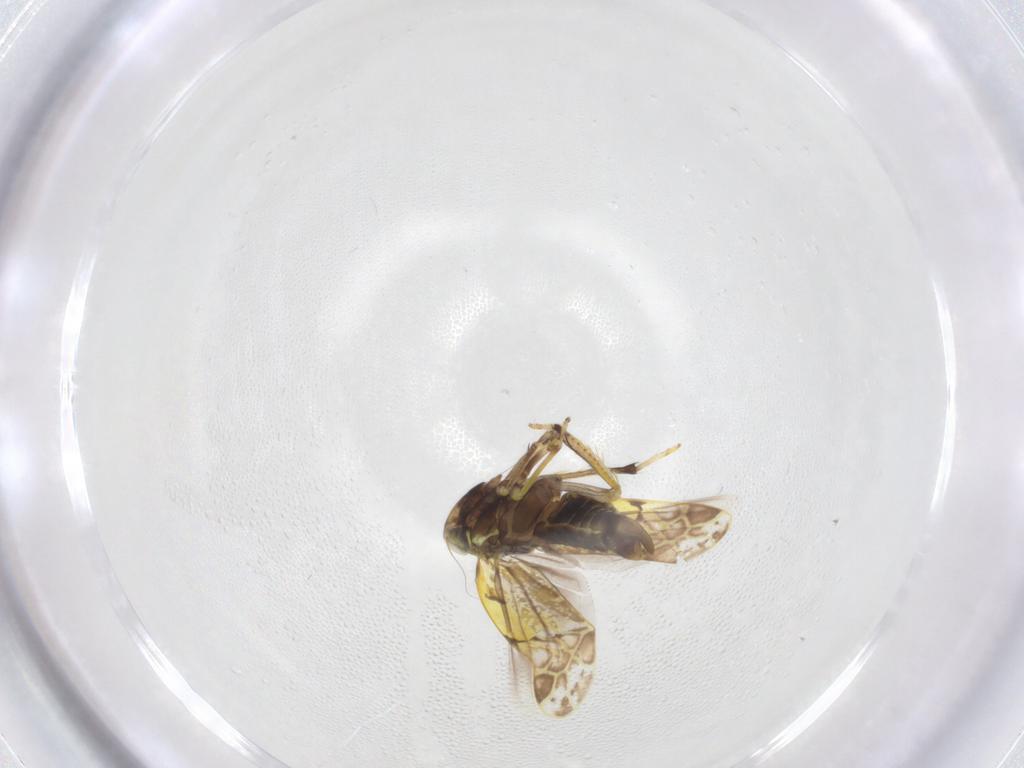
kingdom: Animalia
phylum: Arthropoda
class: Insecta
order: Hemiptera
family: Cicadellidae
